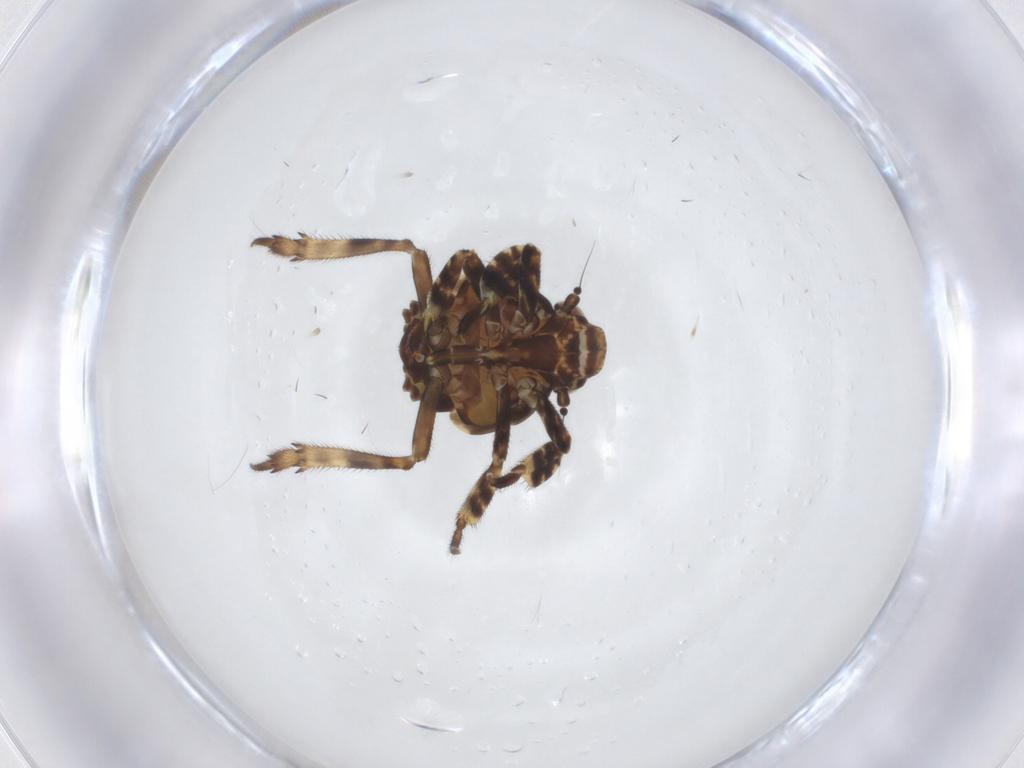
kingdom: Animalia
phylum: Arthropoda
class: Insecta
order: Hemiptera
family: Eurybrachidae
